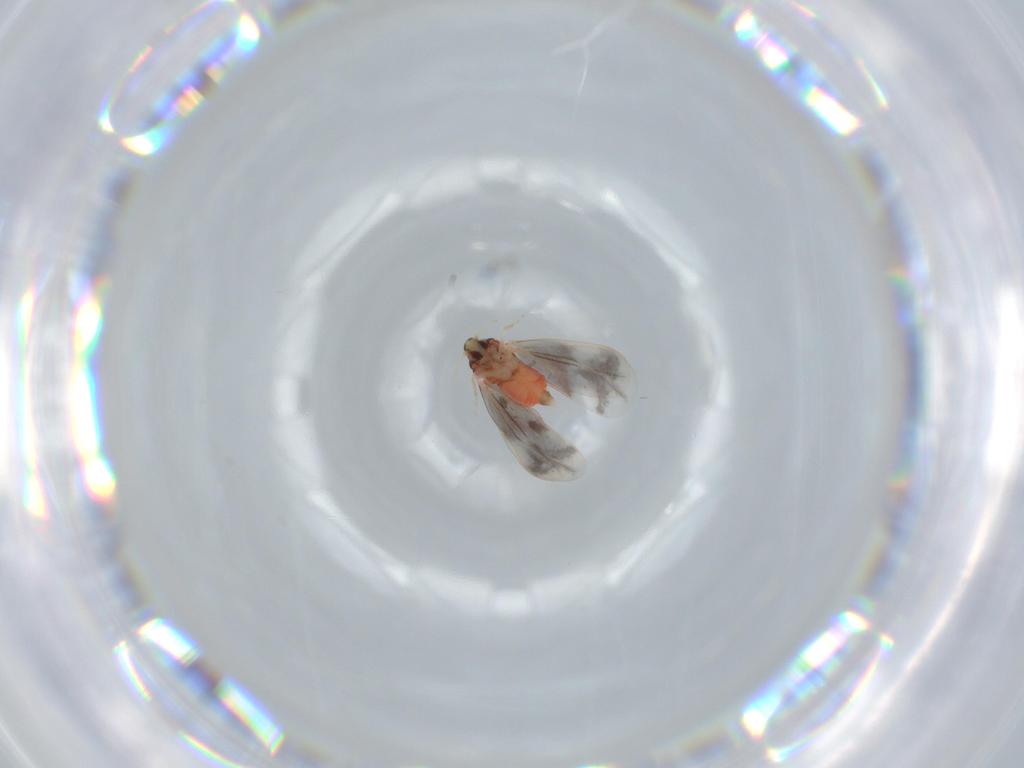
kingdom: Animalia
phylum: Arthropoda
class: Insecta
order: Hemiptera
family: Aleyrodidae
